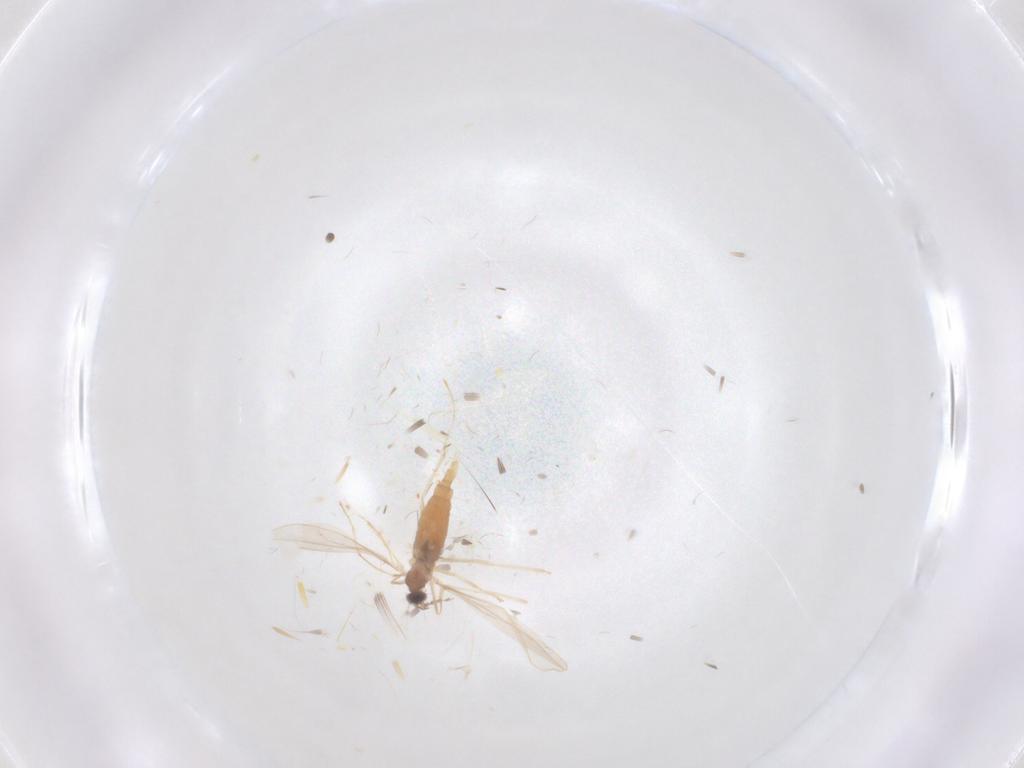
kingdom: Animalia
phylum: Arthropoda
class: Insecta
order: Diptera
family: Cecidomyiidae
